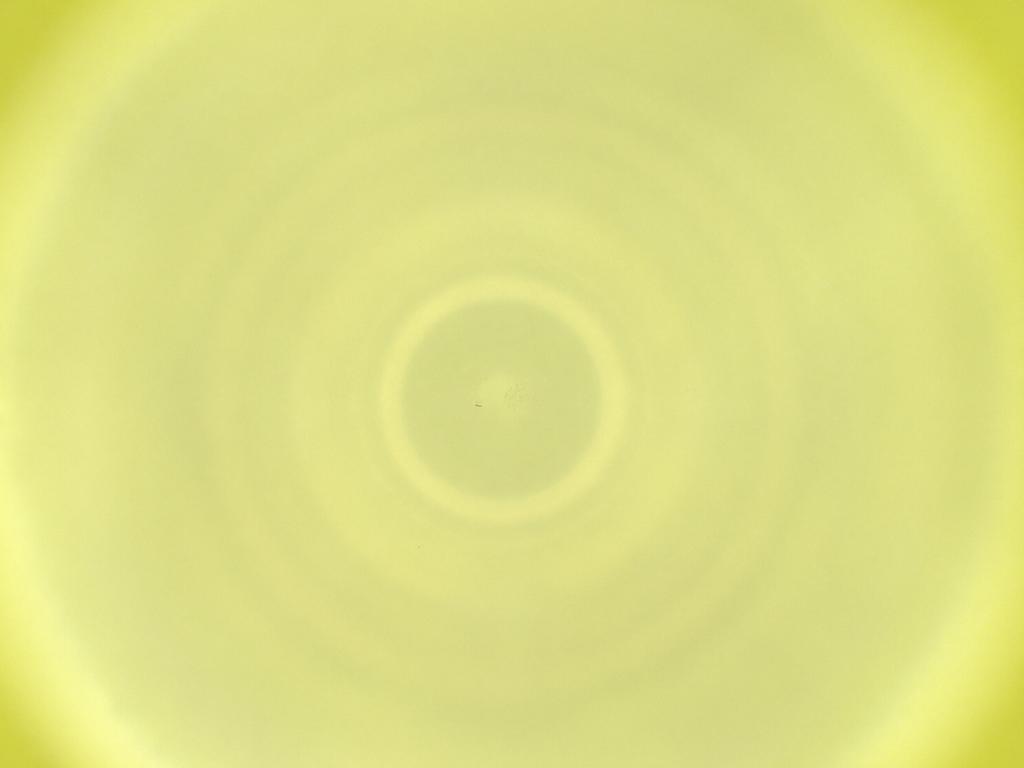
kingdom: Animalia
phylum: Arthropoda
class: Insecta
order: Diptera
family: Cecidomyiidae
